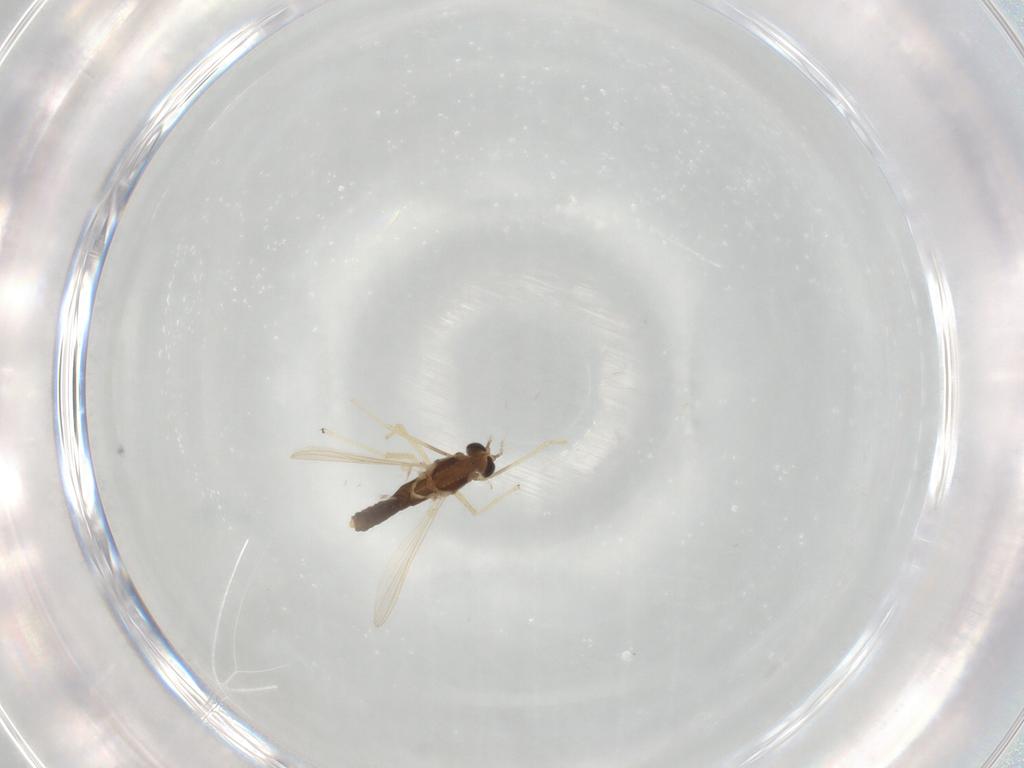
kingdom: Animalia
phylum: Arthropoda
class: Insecta
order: Diptera
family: Chironomidae
